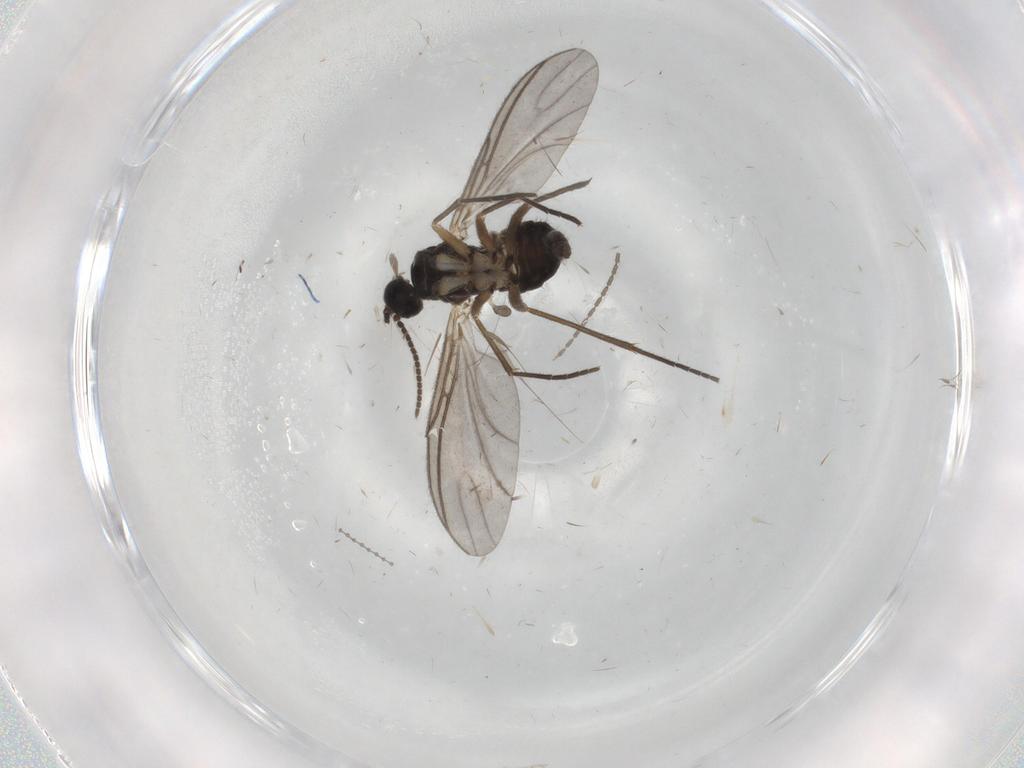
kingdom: Animalia
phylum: Arthropoda
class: Insecta
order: Diptera
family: Sciaridae
